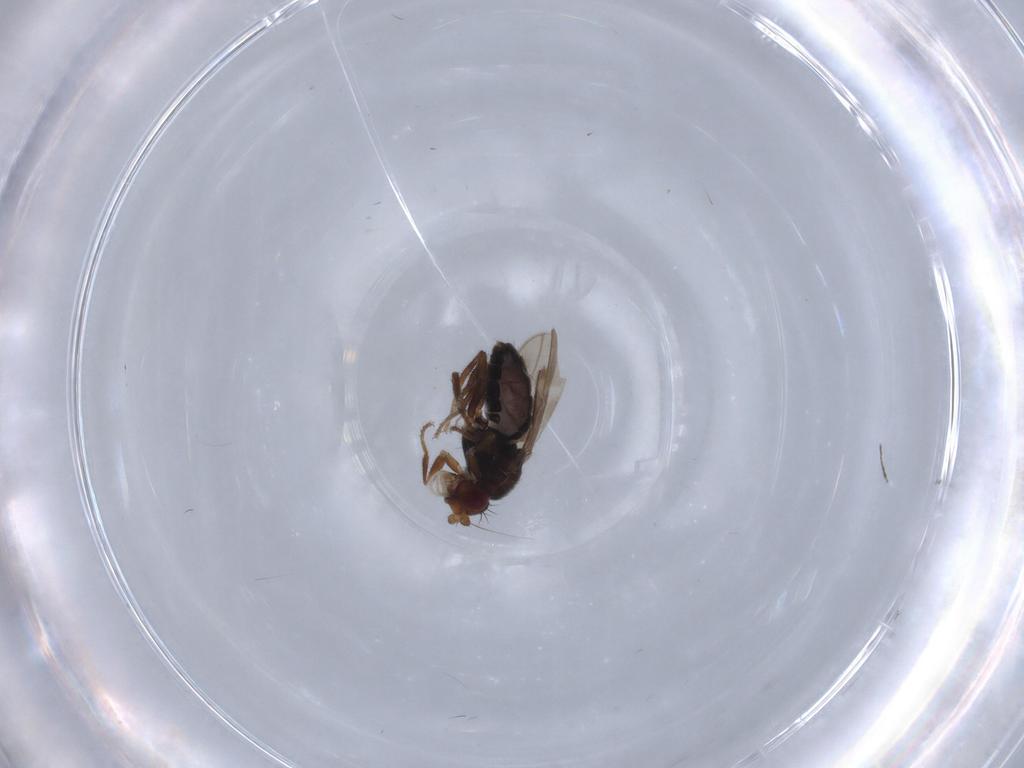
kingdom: Animalia
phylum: Arthropoda
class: Insecta
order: Diptera
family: Sphaeroceridae
